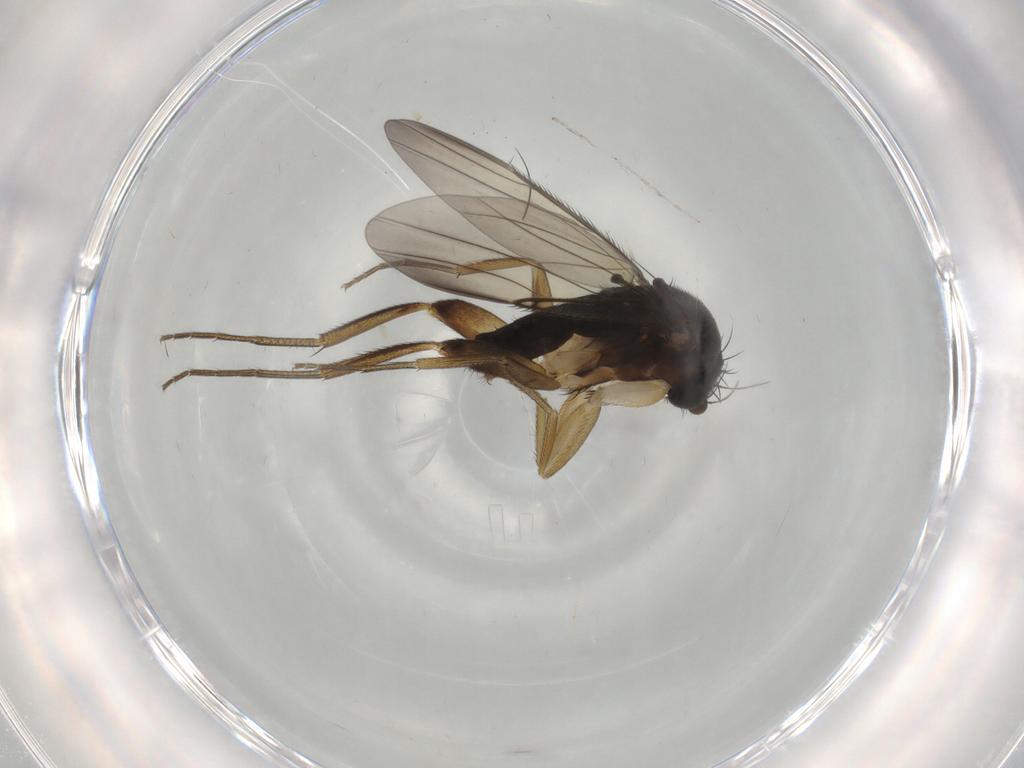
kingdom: Animalia
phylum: Arthropoda
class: Insecta
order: Diptera
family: Phoridae
